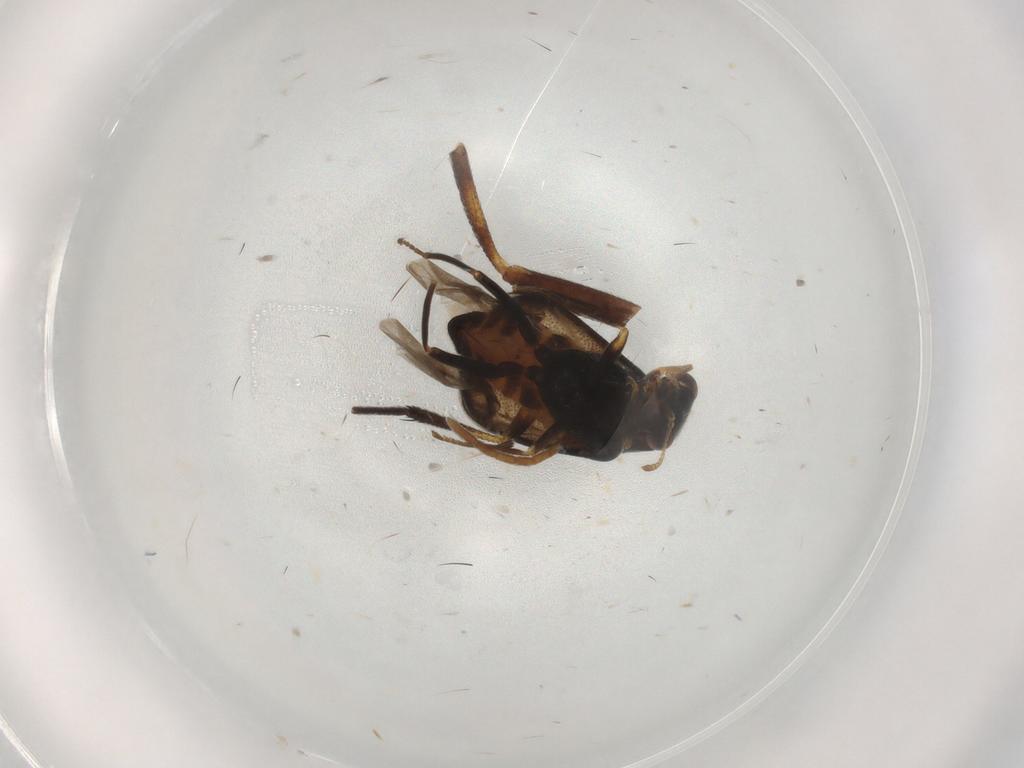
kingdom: Animalia
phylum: Arthropoda
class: Insecta
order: Coleoptera
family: Melyridae
